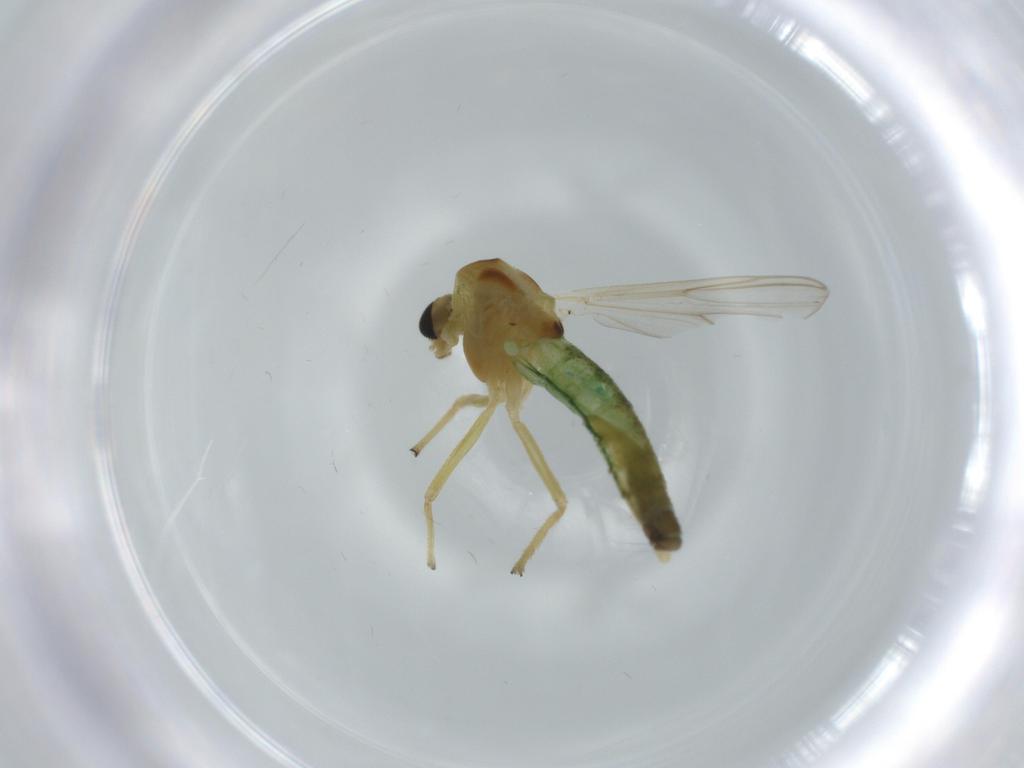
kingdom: Animalia
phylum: Arthropoda
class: Insecta
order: Diptera
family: Chironomidae
